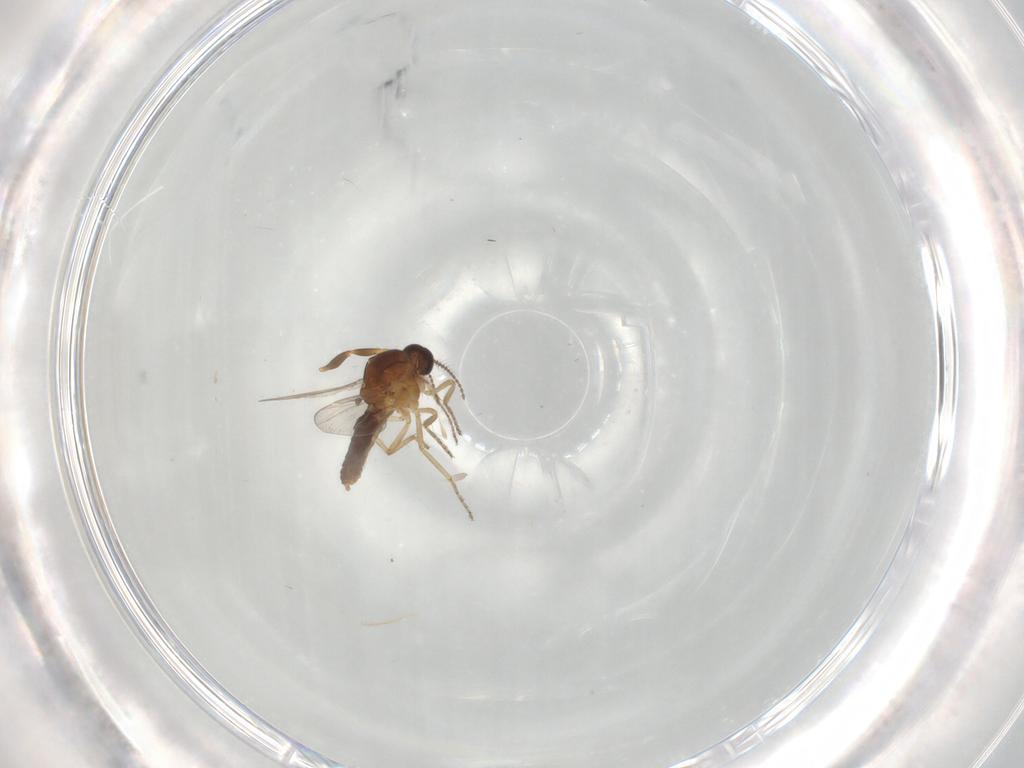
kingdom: Animalia
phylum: Arthropoda
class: Insecta
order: Diptera
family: Ceratopogonidae
